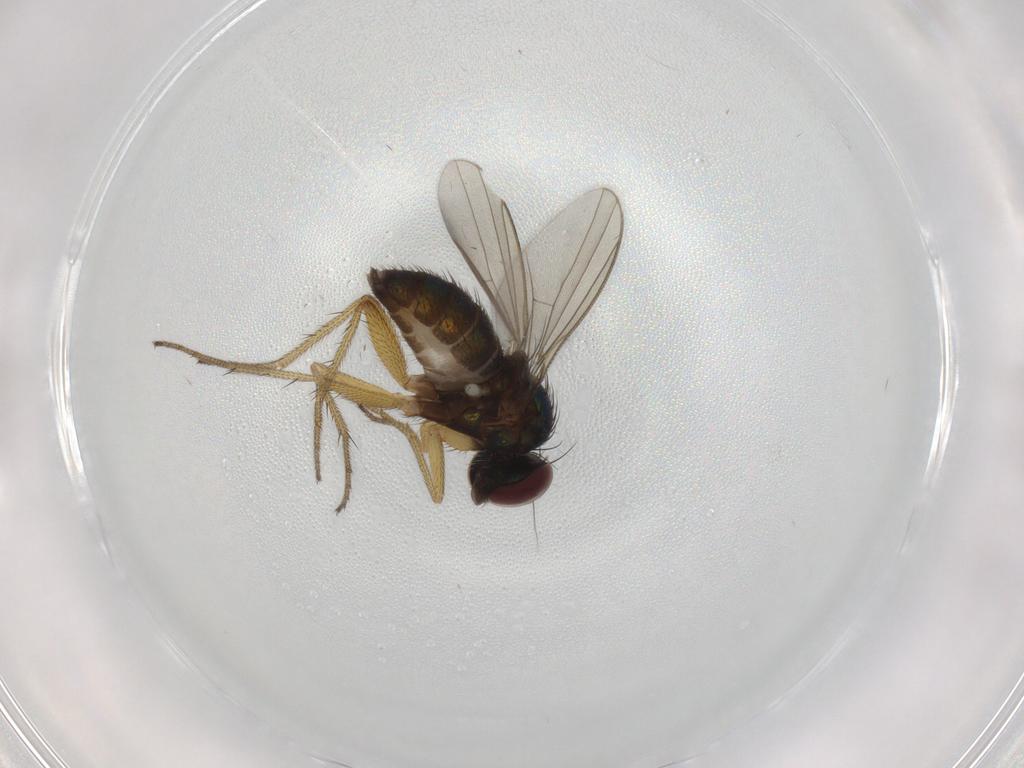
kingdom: Animalia
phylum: Arthropoda
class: Insecta
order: Diptera
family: Dolichopodidae
